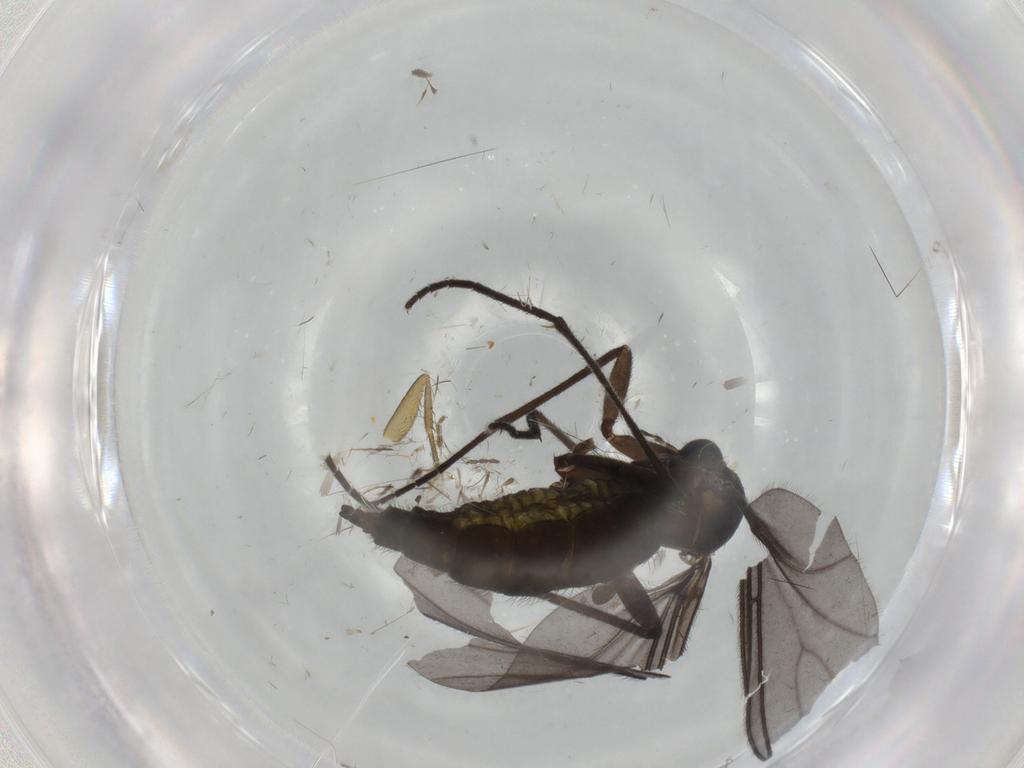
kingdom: Animalia
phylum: Arthropoda
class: Insecta
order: Diptera
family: Sciaridae
